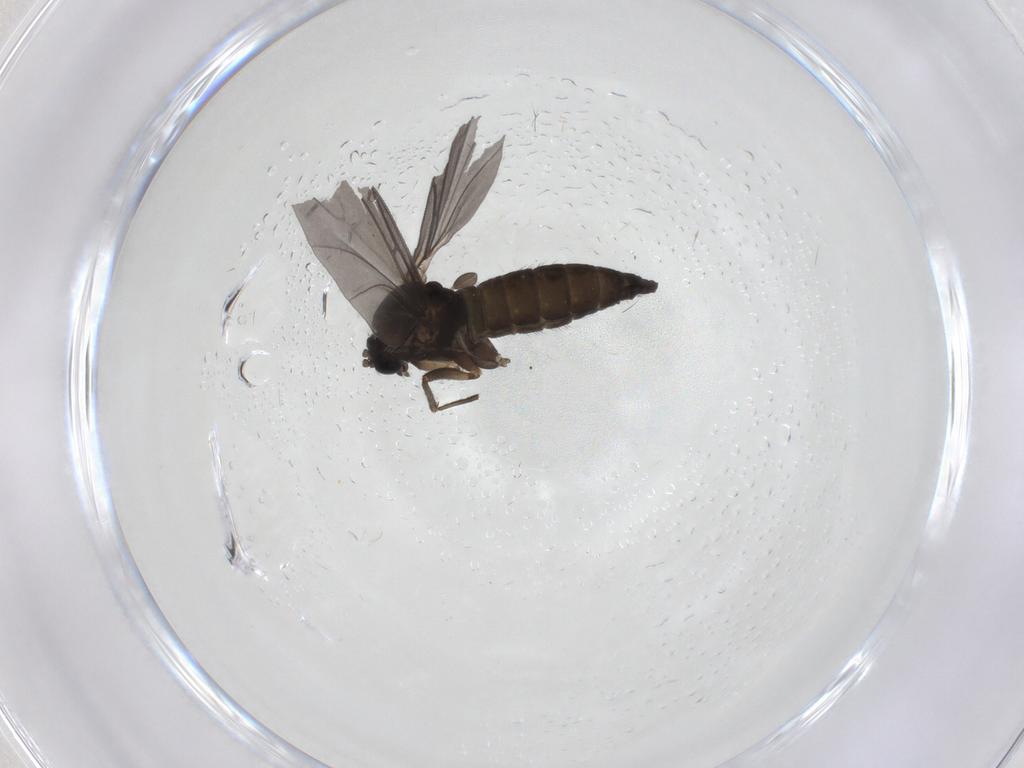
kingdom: Animalia
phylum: Arthropoda
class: Insecta
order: Diptera
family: Sciaridae
